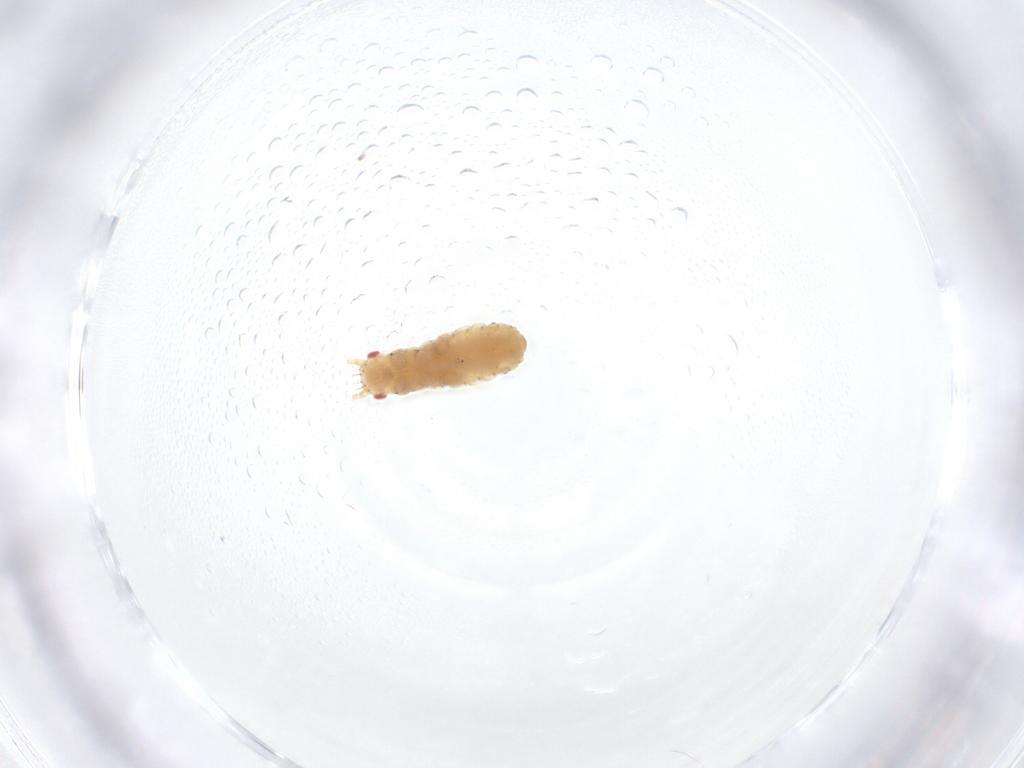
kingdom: Animalia
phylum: Arthropoda
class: Insecta
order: Hemiptera
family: Aphididae
